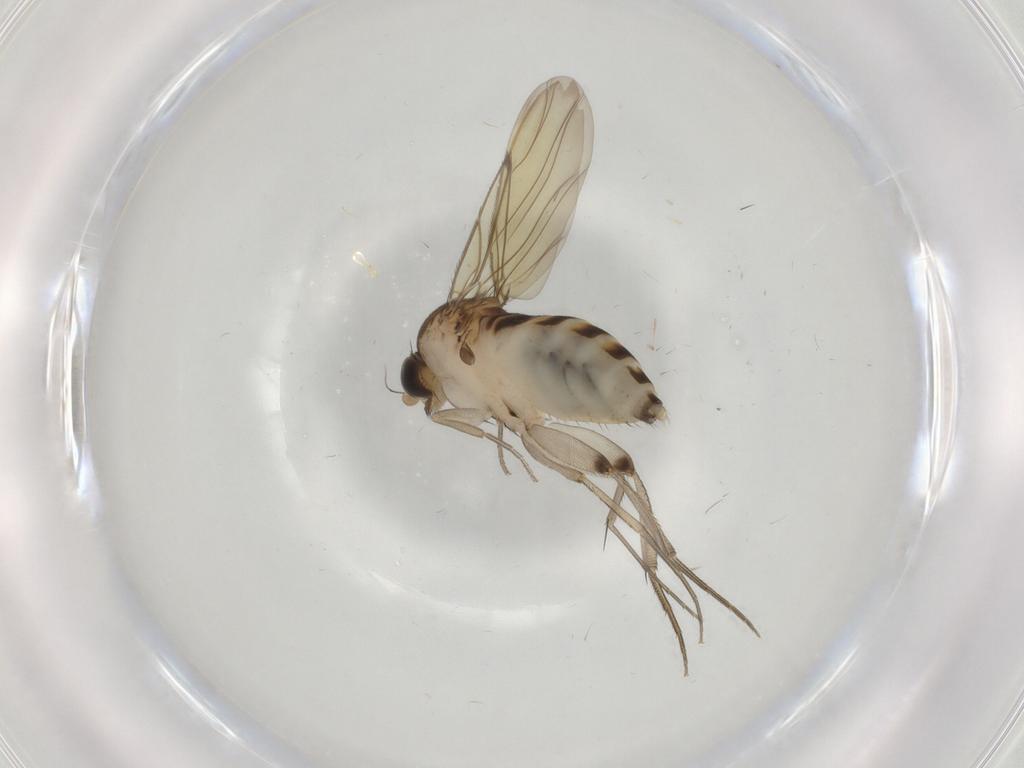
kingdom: Animalia
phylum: Arthropoda
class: Insecta
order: Diptera
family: Phoridae
